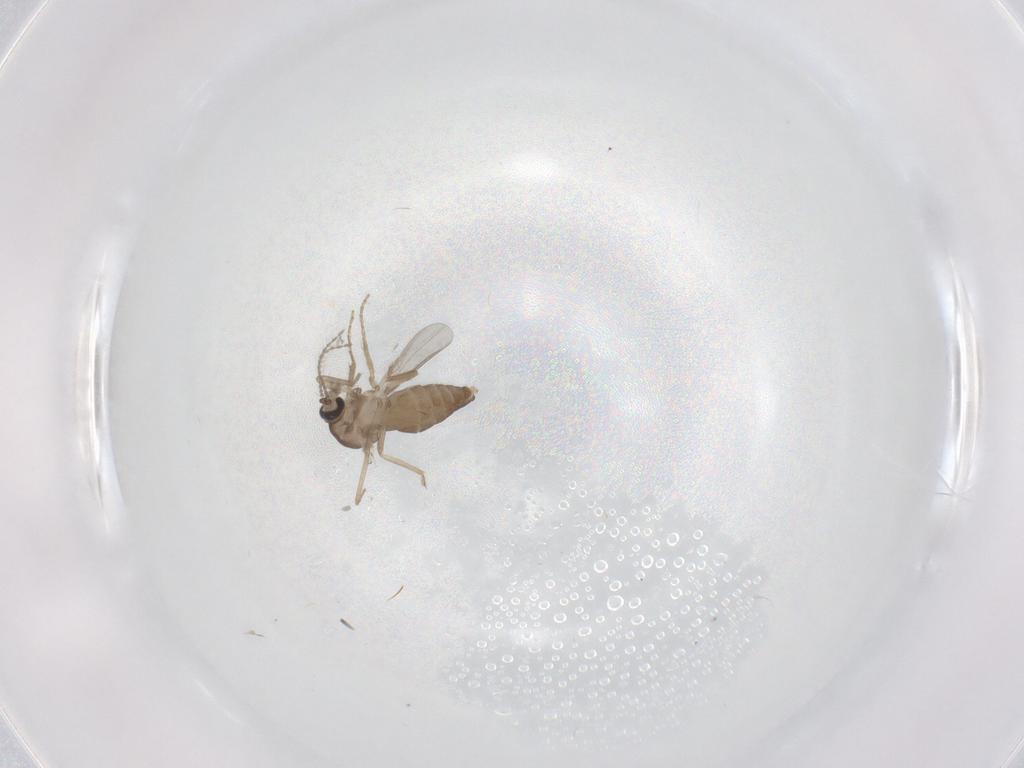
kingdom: Animalia
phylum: Arthropoda
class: Insecta
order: Diptera
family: Ceratopogonidae
